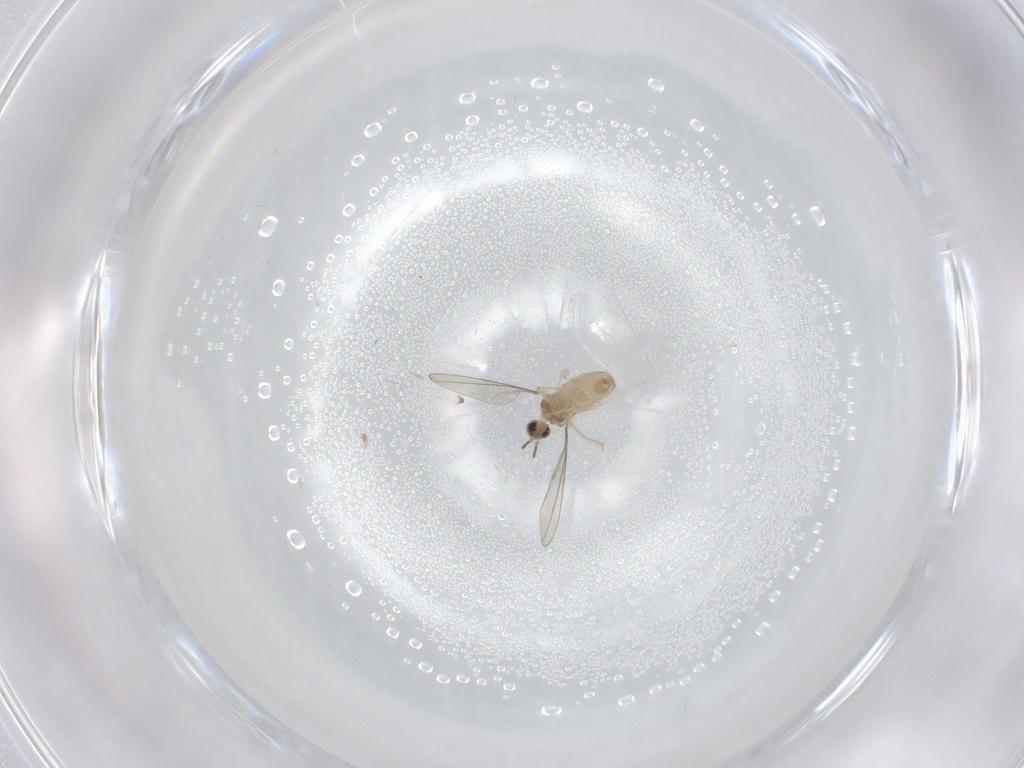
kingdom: Animalia
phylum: Arthropoda
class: Insecta
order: Diptera
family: Cecidomyiidae
